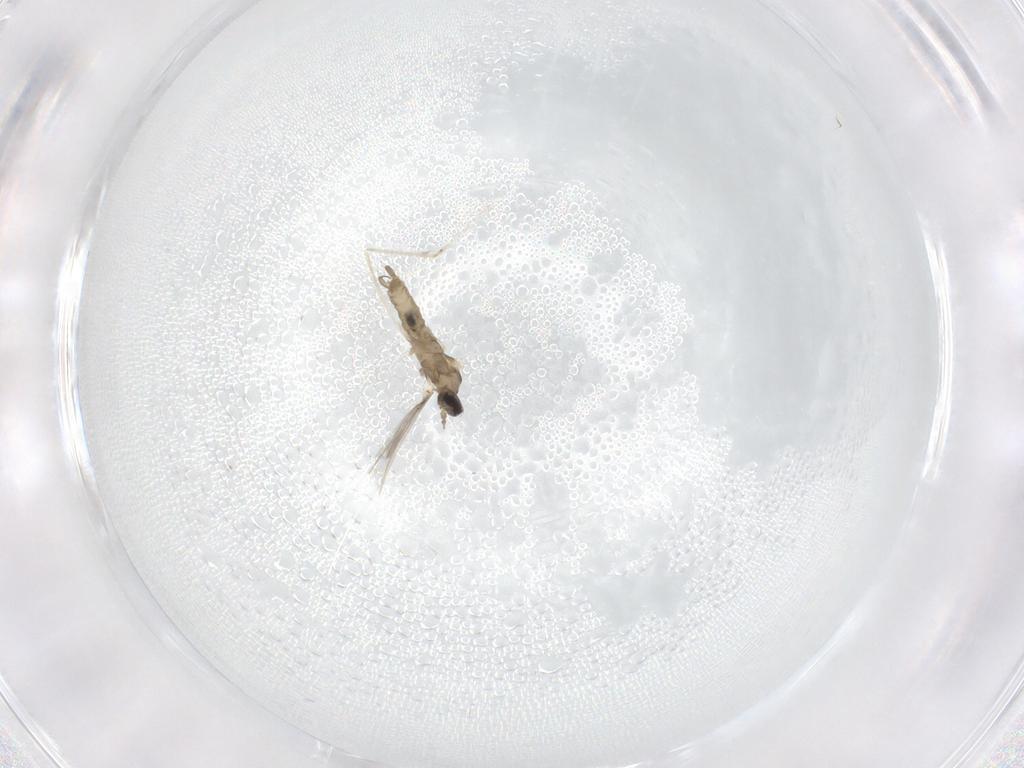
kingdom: Animalia
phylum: Arthropoda
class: Insecta
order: Diptera
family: Cecidomyiidae
